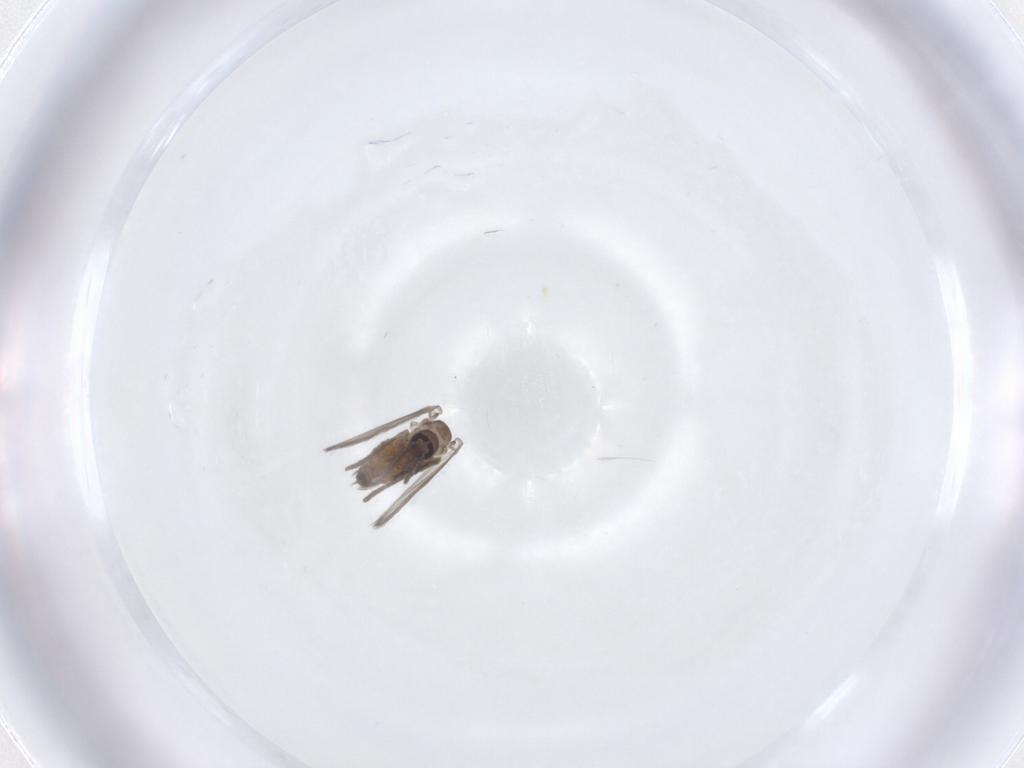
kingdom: Animalia
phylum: Arthropoda
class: Insecta
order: Diptera
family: Psychodidae
